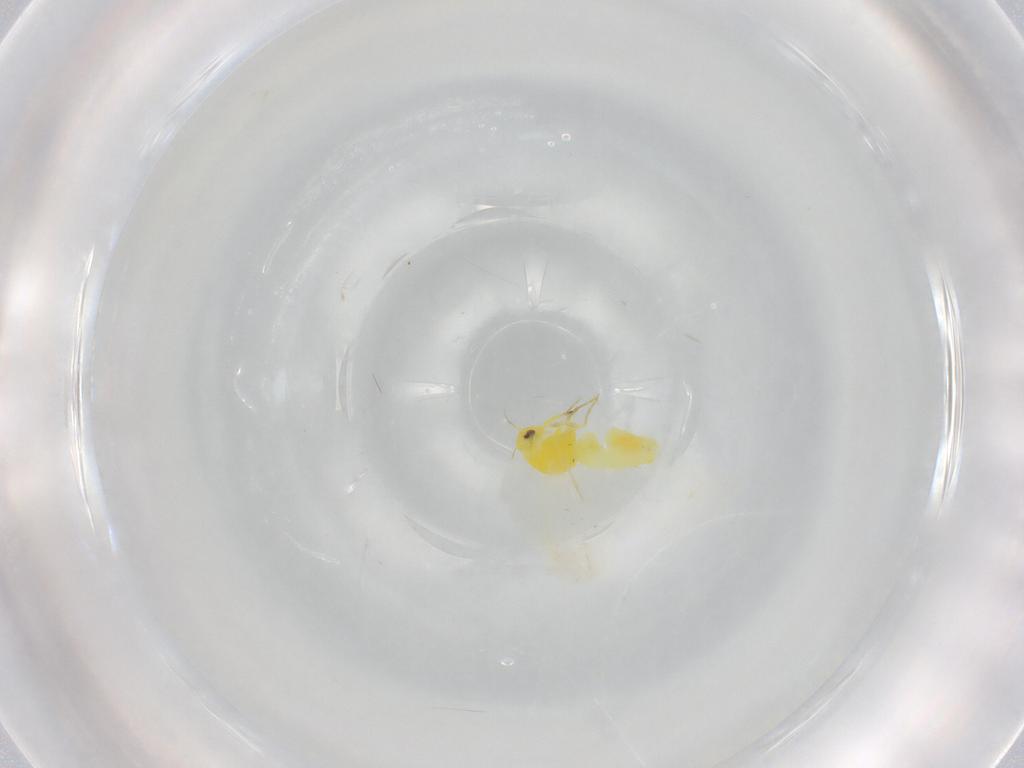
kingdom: Animalia
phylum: Arthropoda
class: Insecta
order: Hemiptera
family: Aleyrodidae
